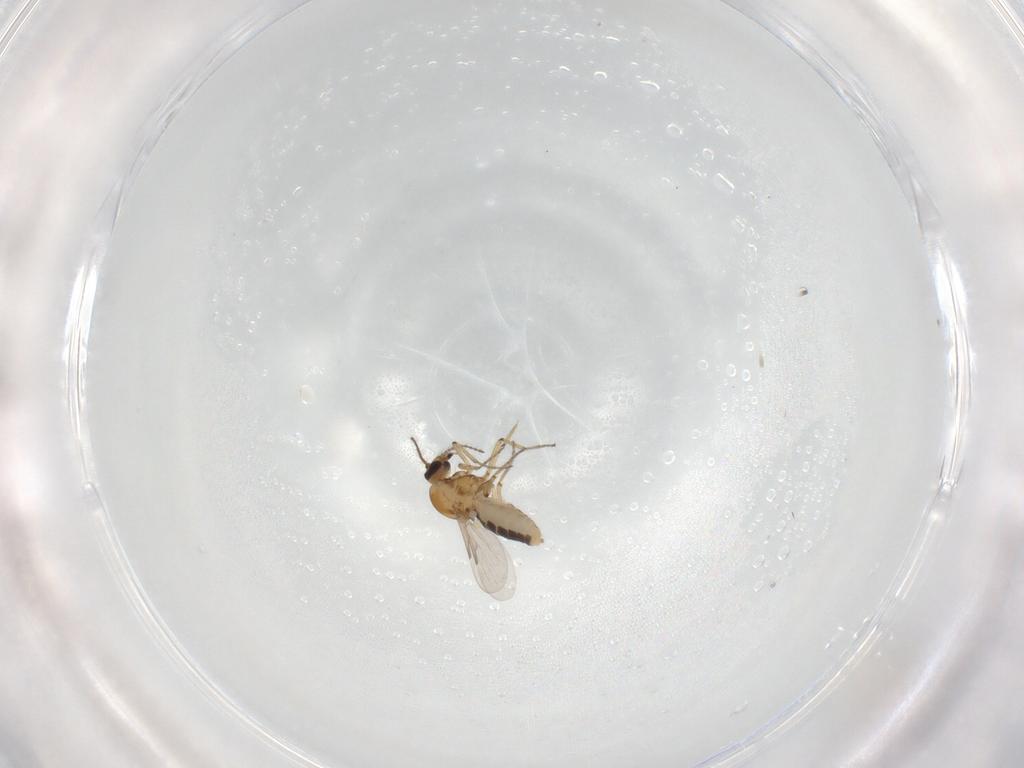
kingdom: Animalia
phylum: Arthropoda
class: Insecta
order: Diptera
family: Ceratopogonidae
